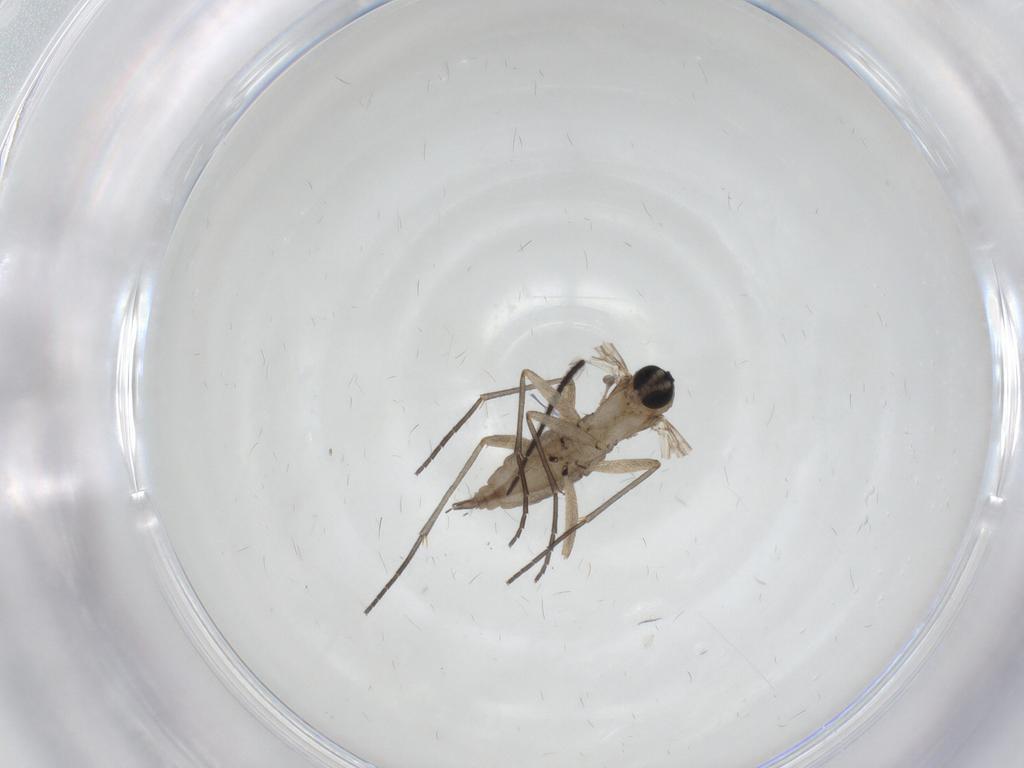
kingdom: Animalia
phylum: Arthropoda
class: Insecta
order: Diptera
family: Sciaridae
